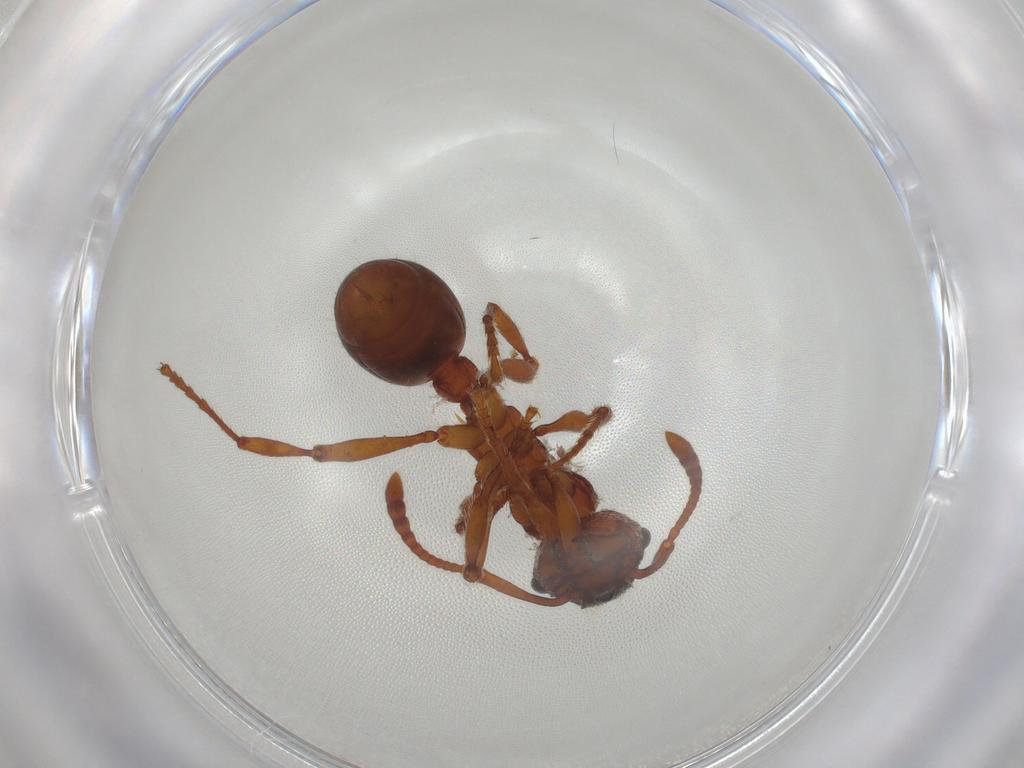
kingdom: Animalia
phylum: Arthropoda
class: Insecta
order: Hymenoptera
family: Formicidae
